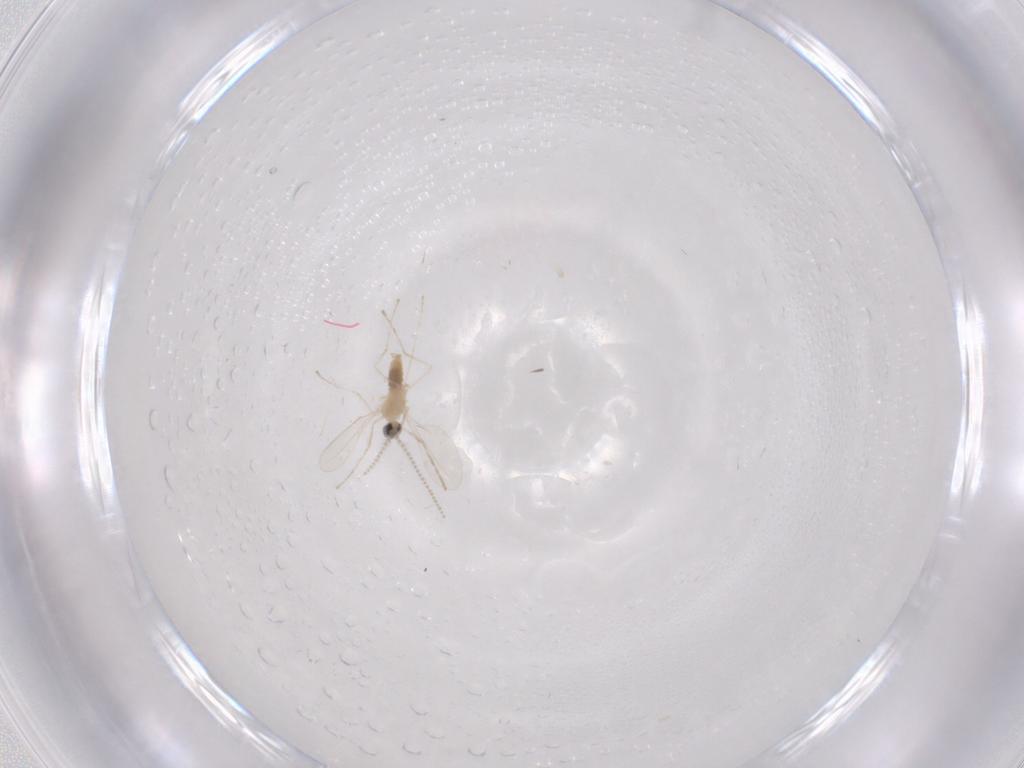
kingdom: Animalia
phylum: Arthropoda
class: Insecta
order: Diptera
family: Cecidomyiidae
